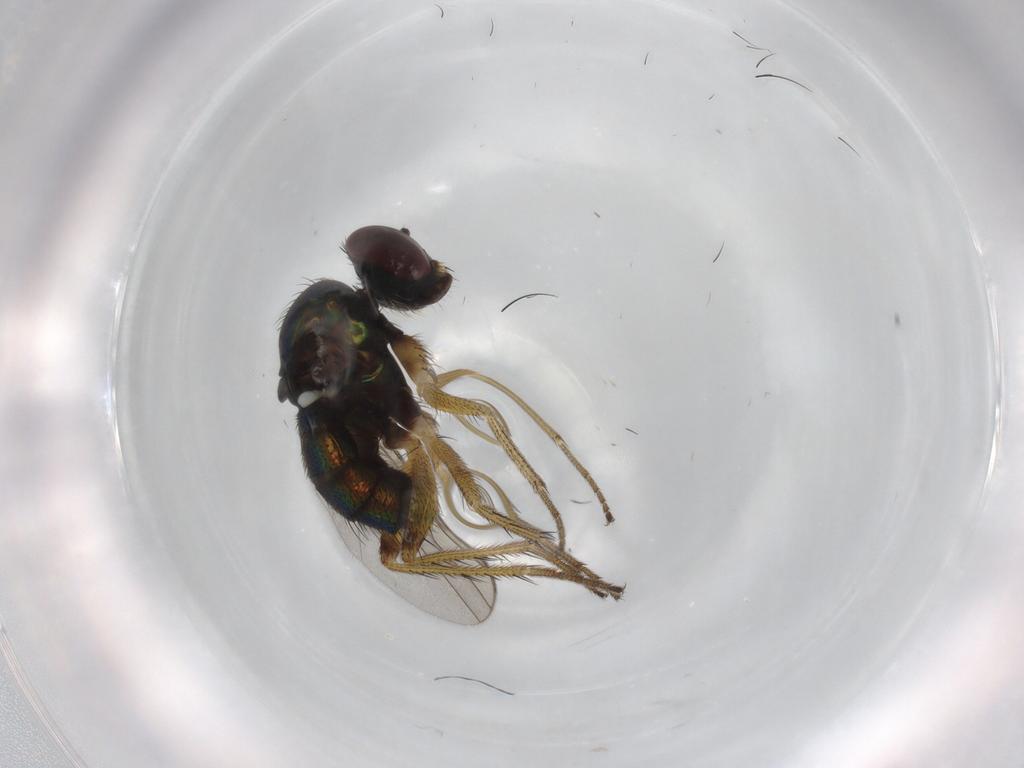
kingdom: Animalia
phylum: Arthropoda
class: Insecta
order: Diptera
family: Dolichopodidae
